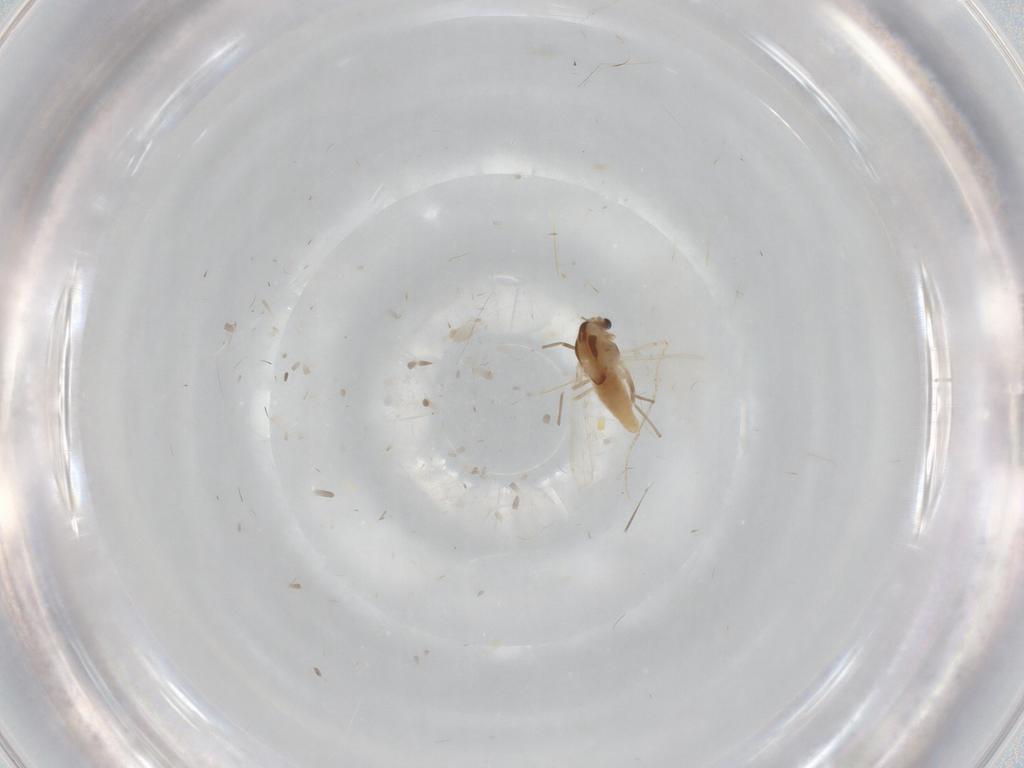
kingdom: Animalia
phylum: Arthropoda
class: Insecta
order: Diptera
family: Chironomidae
